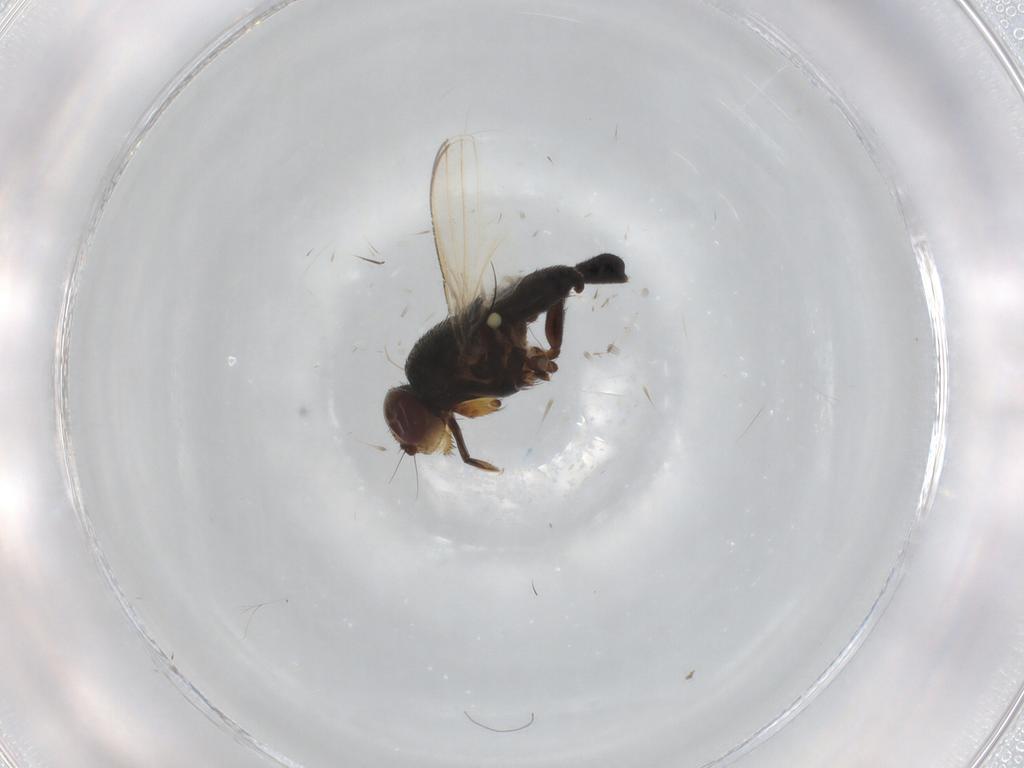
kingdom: Animalia
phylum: Arthropoda
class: Insecta
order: Diptera
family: Milichiidae
